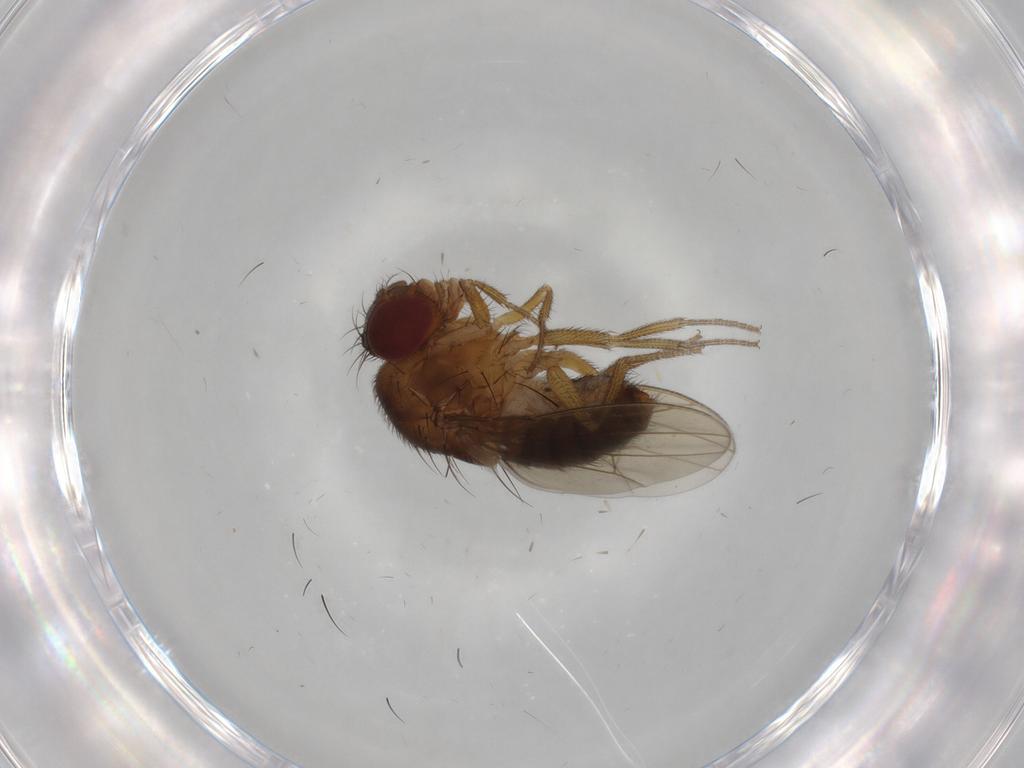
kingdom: Animalia
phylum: Arthropoda
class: Insecta
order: Diptera
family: Drosophilidae
